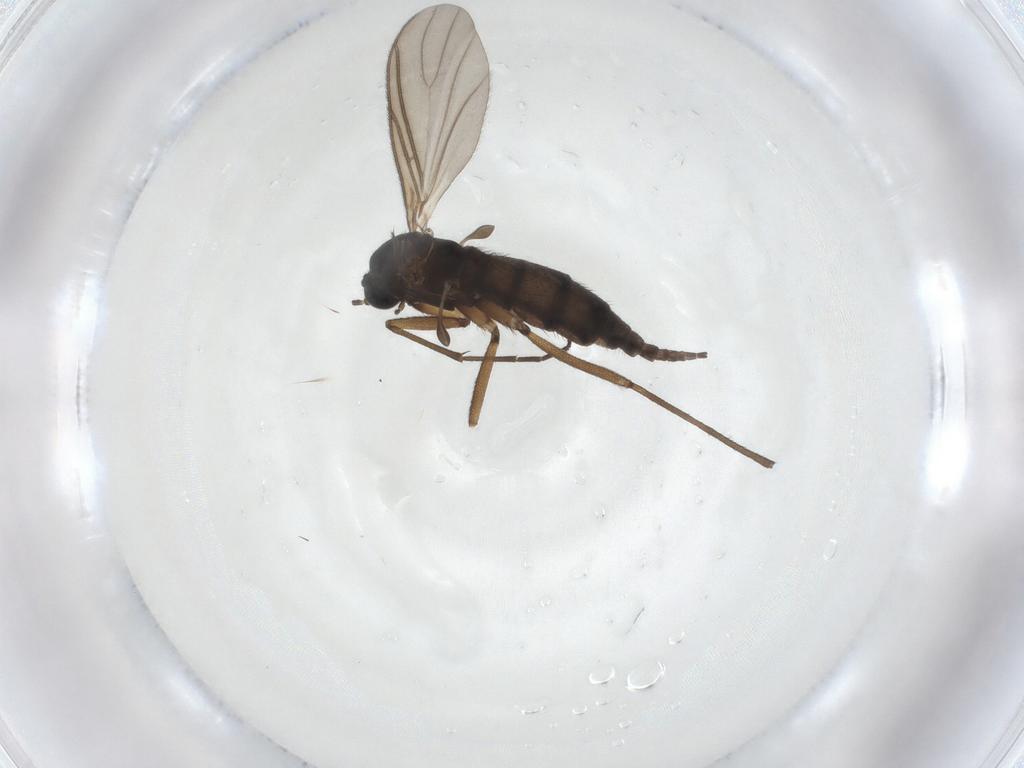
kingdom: Animalia
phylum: Arthropoda
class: Insecta
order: Diptera
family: Sciaridae
